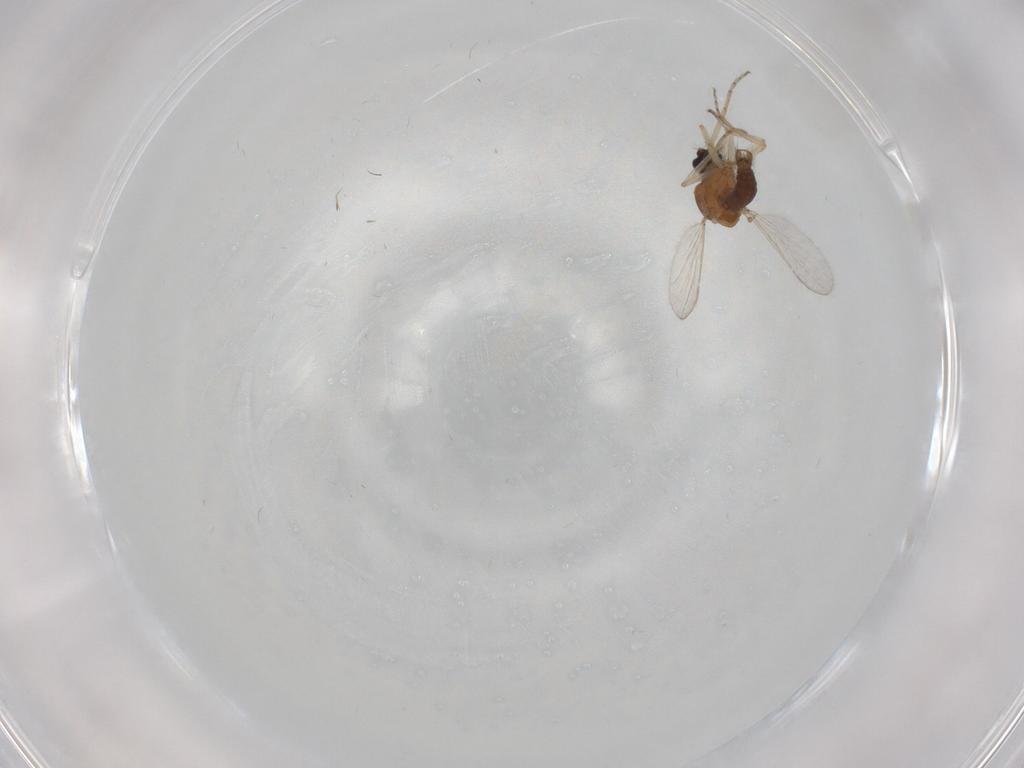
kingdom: Animalia
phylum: Arthropoda
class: Insecta
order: Diptera
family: Ceratopogonidae
